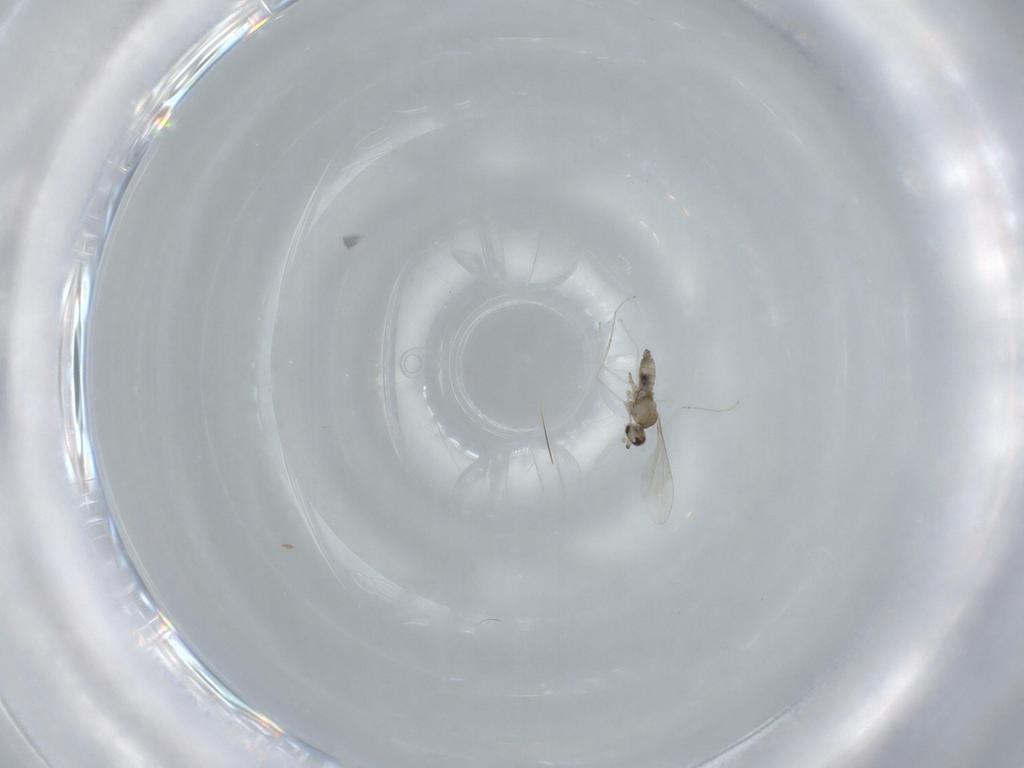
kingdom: Animalia
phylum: Arthropoda
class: Insecta
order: Diptera
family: Cecidomyiidae
